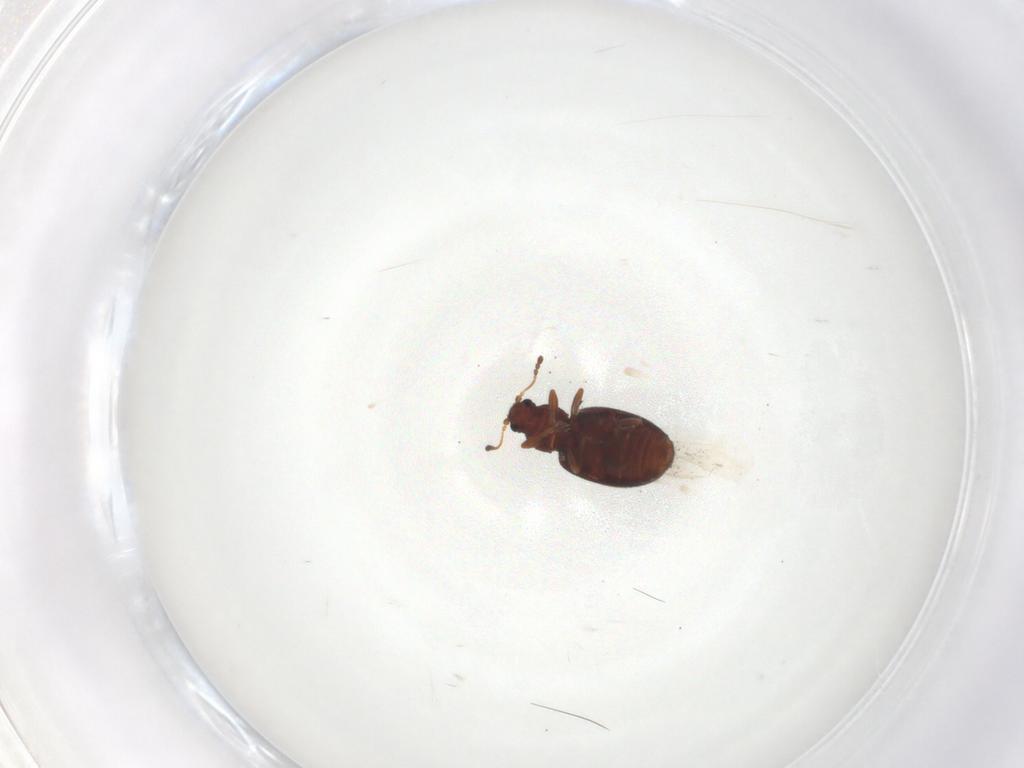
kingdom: Animalia
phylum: Arthropoda
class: Insecta
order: Coleoptera
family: Latridiidae
